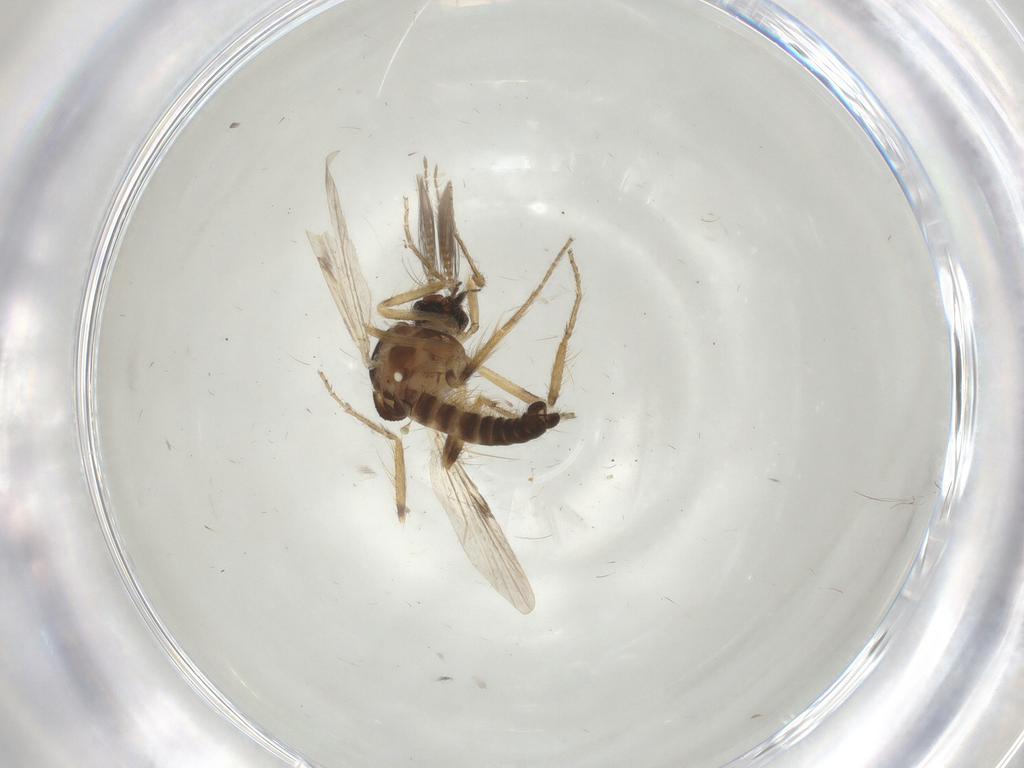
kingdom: Animalia
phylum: Arthropoda
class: Insecta
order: Diptera
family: Ceratopogonidae
